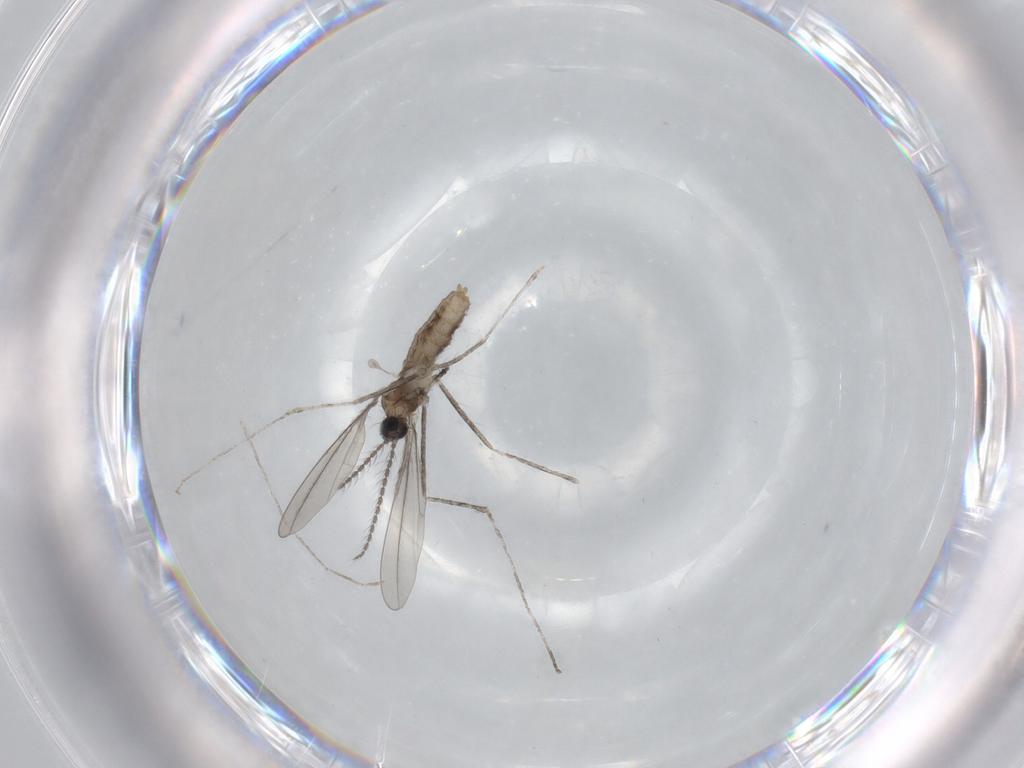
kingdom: Animalia
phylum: Arthropoda
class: Insecta
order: Diptera
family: Cecidomyiidae
